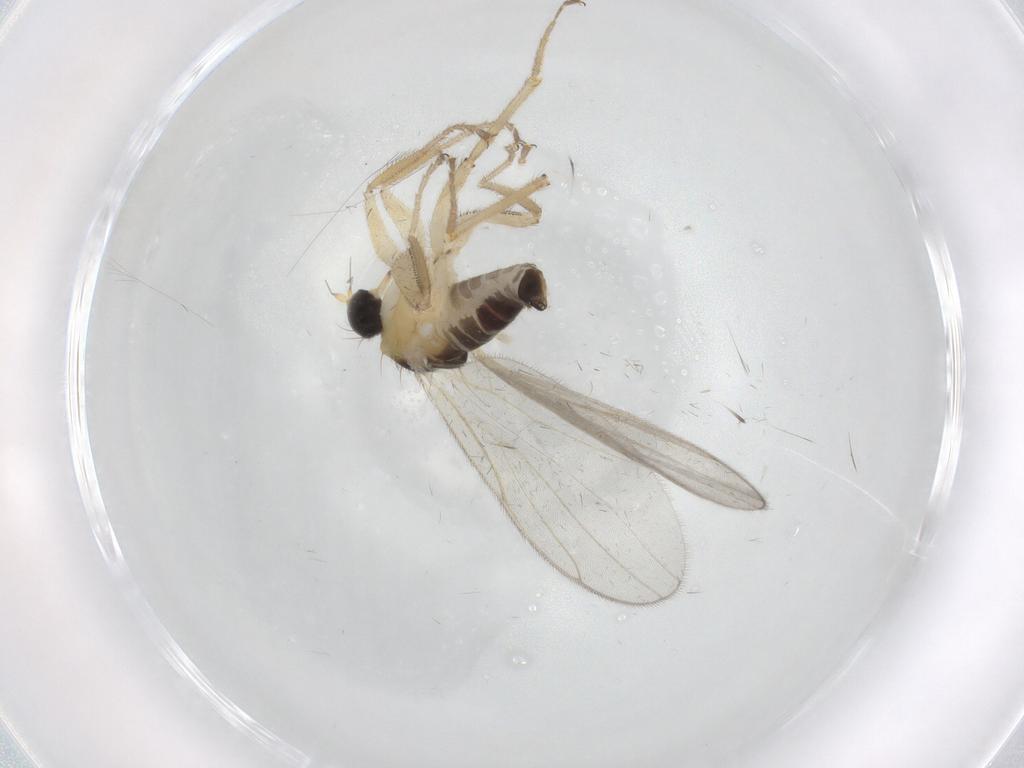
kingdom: Animalia
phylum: Arthropoda
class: Insecta
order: Diptera
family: Hybotidae
